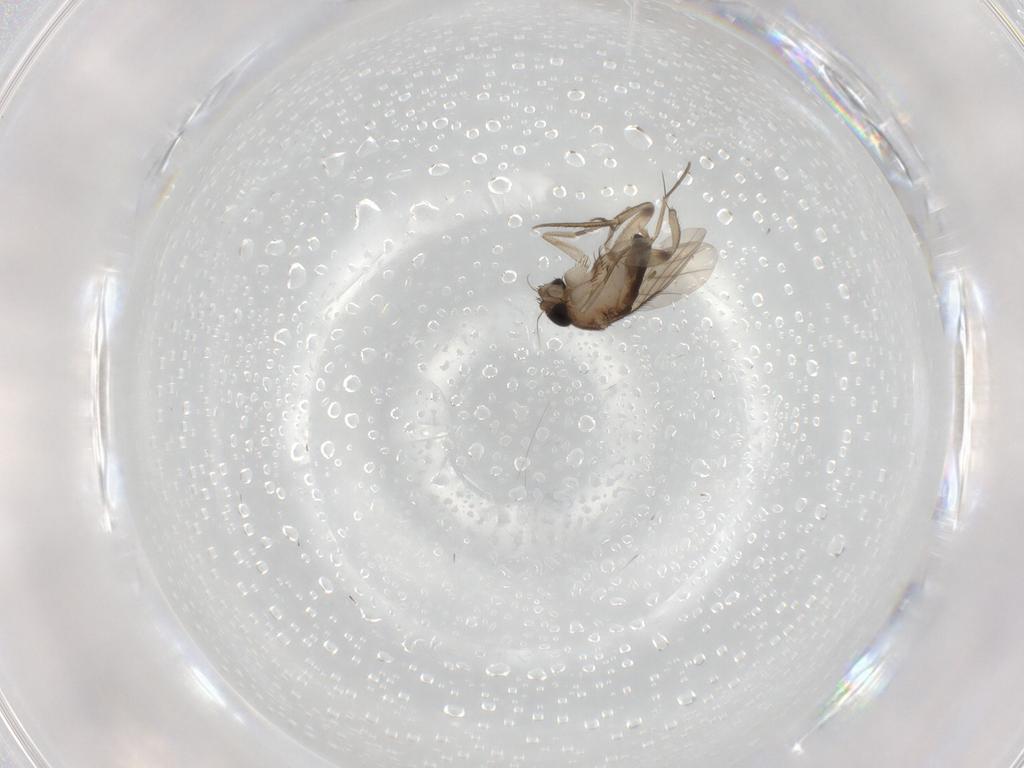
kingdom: Animalia
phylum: Arthropoda
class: Insecta
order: Diptera
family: Phoridae
